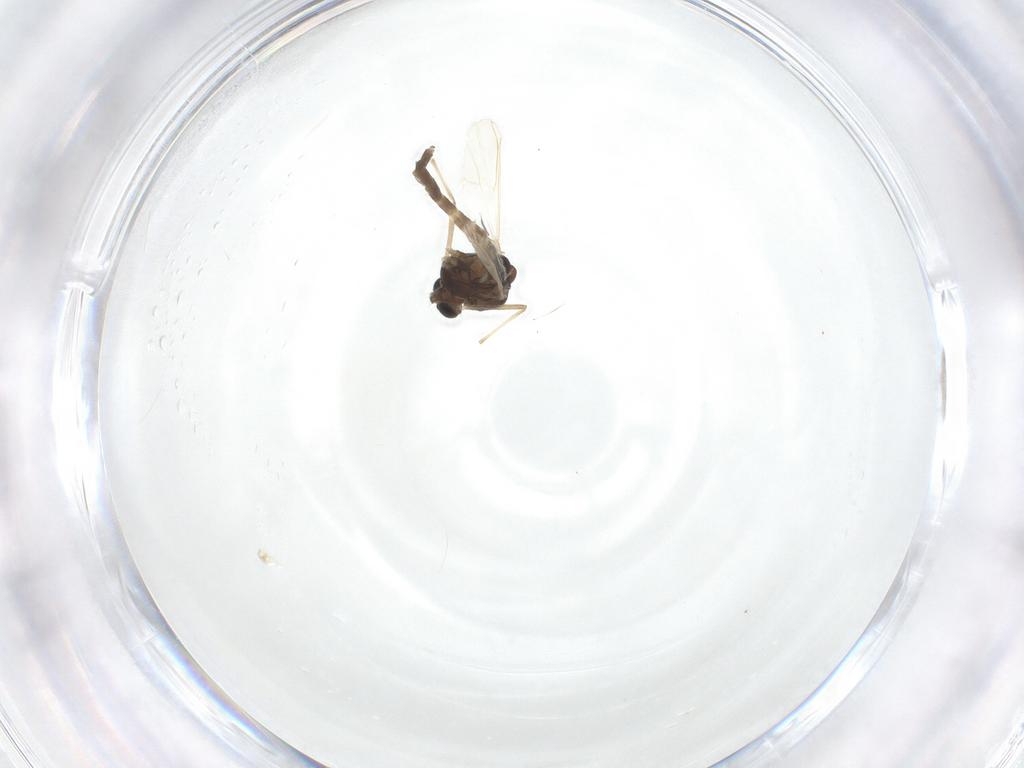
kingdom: Animalia
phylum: Arthropoda
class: Insecta
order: Diptera
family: Chironomidae
